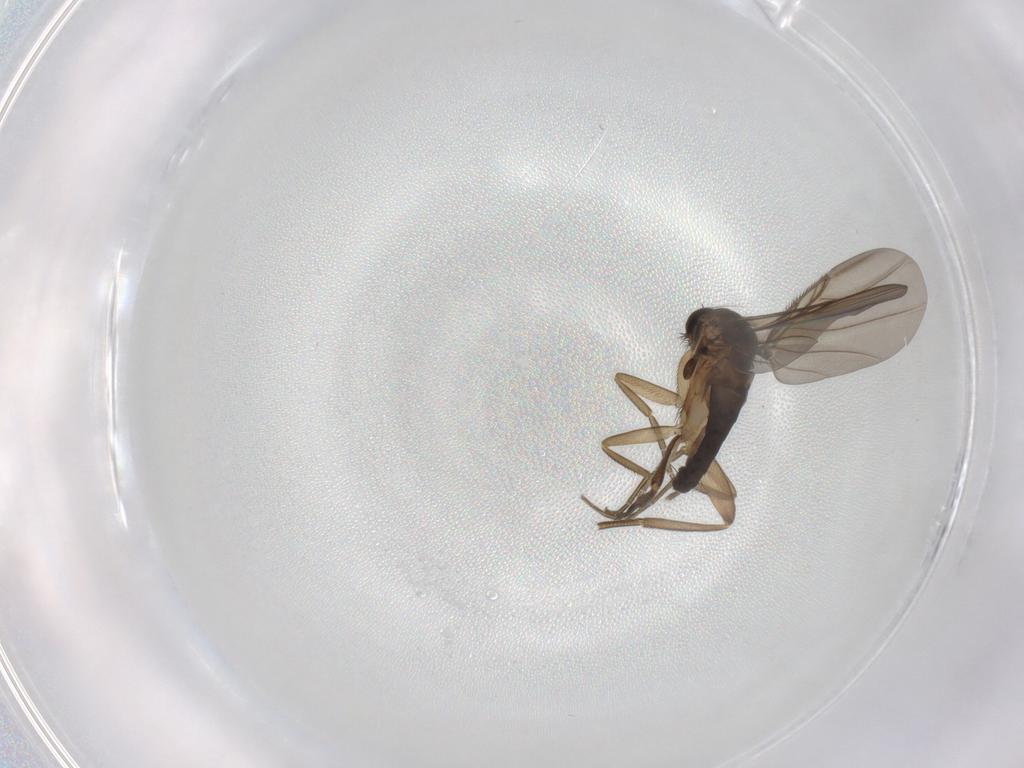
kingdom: Animalia
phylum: Arthropoda
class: Insecta
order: Diptera
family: Phoridae
